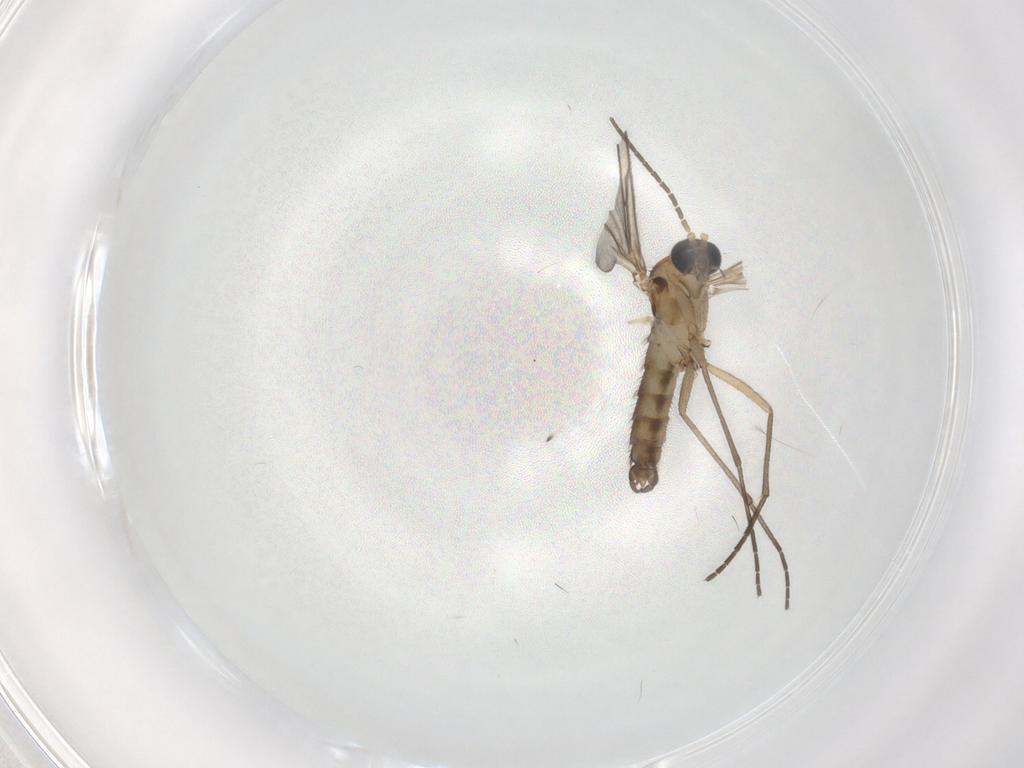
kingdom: Animalia
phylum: Arthropoda
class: Insecta
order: Diptera
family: Sciaridae
